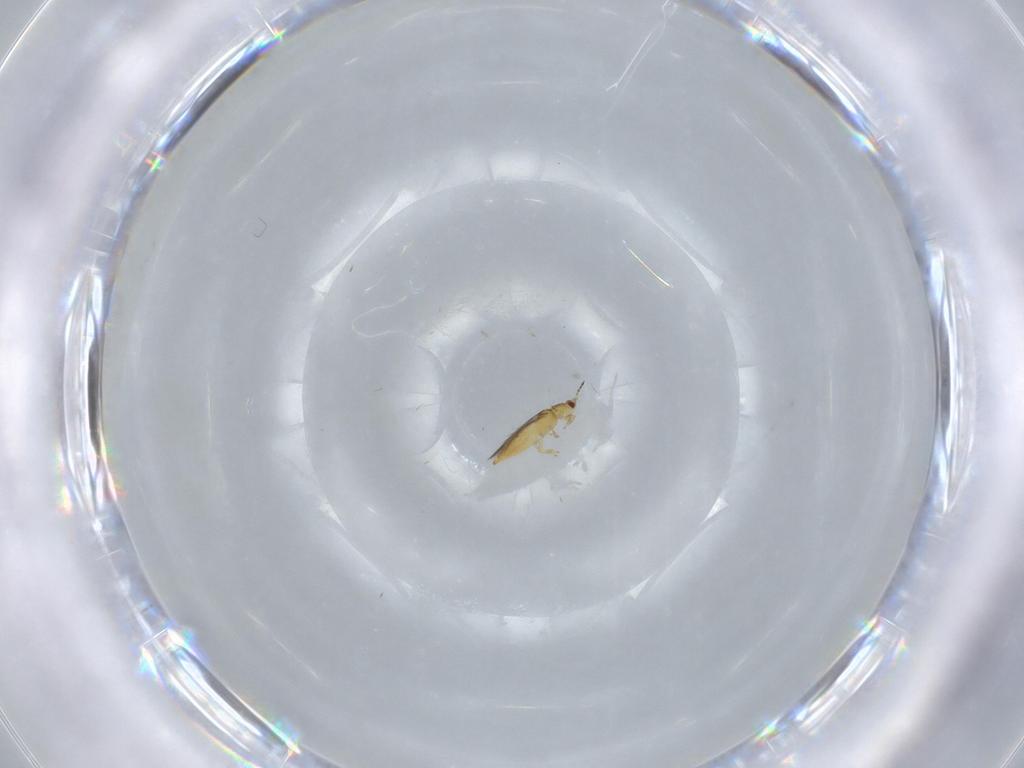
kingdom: Animalia
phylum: Arthropoda
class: Insecta
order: Thysanoptera
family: Thripidae
